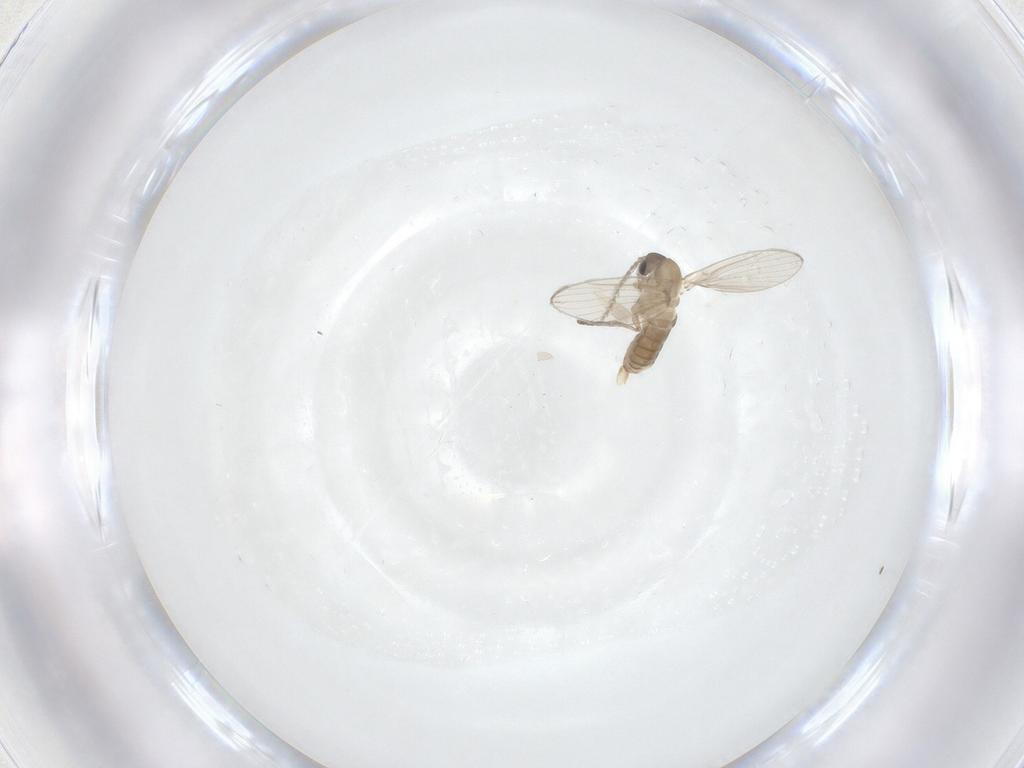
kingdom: Animalia
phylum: Arthropoda
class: Insecta
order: Diptera
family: Psychodidae
